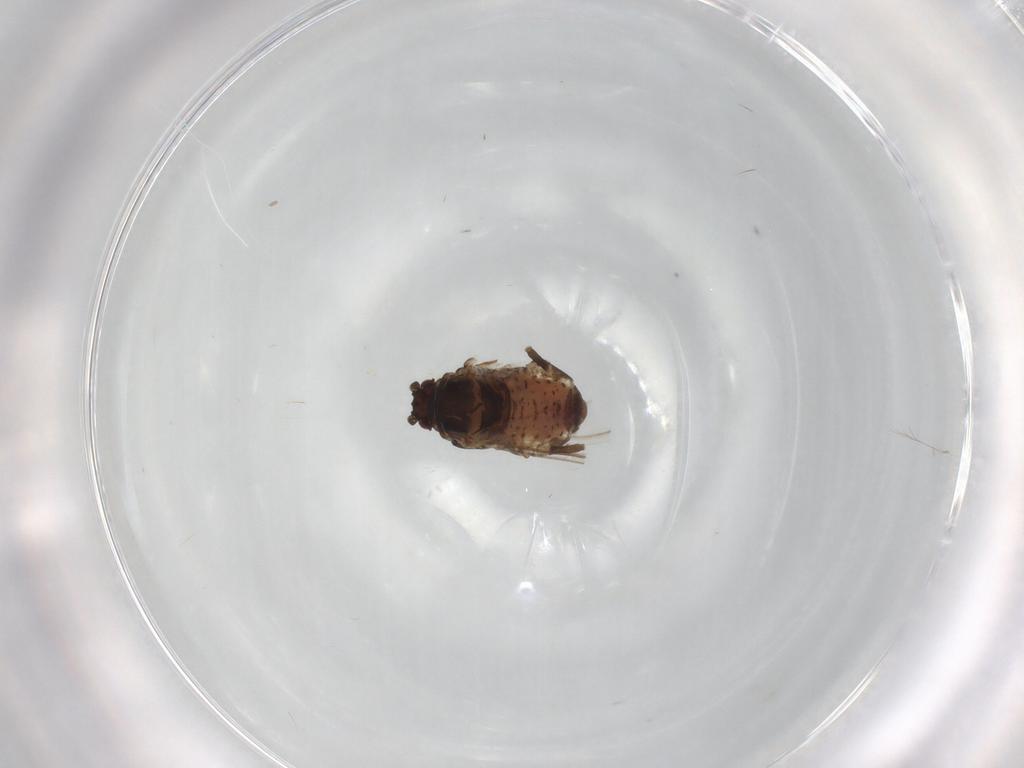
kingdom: Animalia
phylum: Arthropoda
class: Insecta
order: Hemiptera
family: Aphididae
